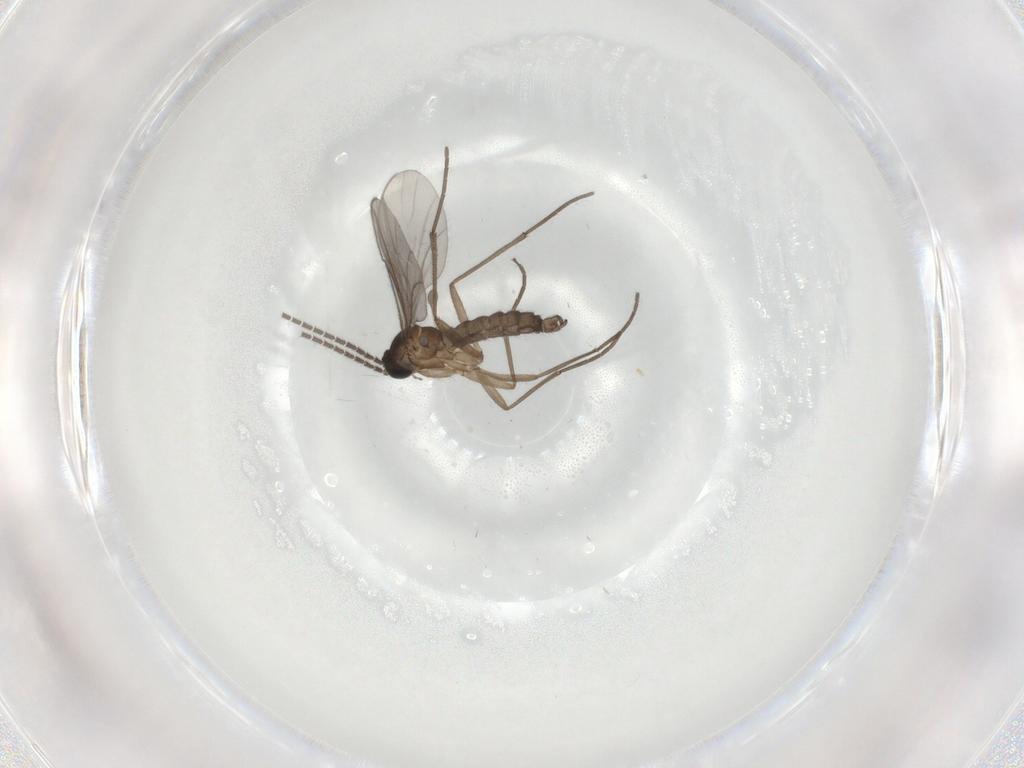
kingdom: Animalia
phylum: Arthropoda
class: Insecta
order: Diptera
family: Sciaridae
